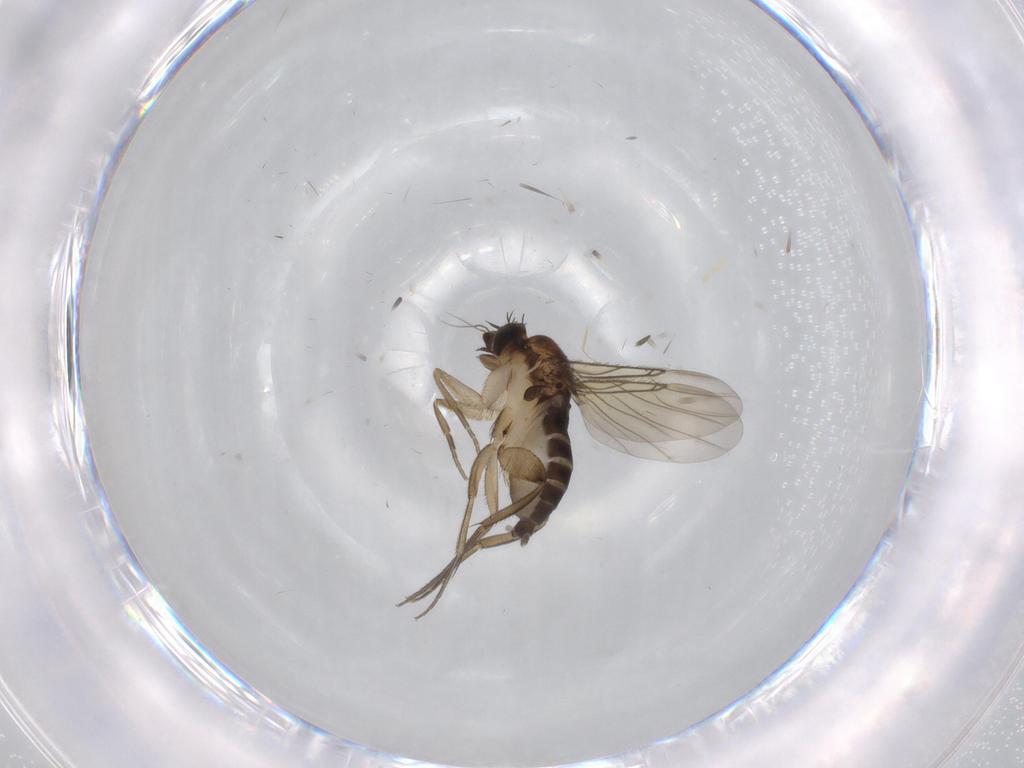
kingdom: Animalia
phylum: Arthropoda
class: Insecta
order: Diptera
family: Phoridae
